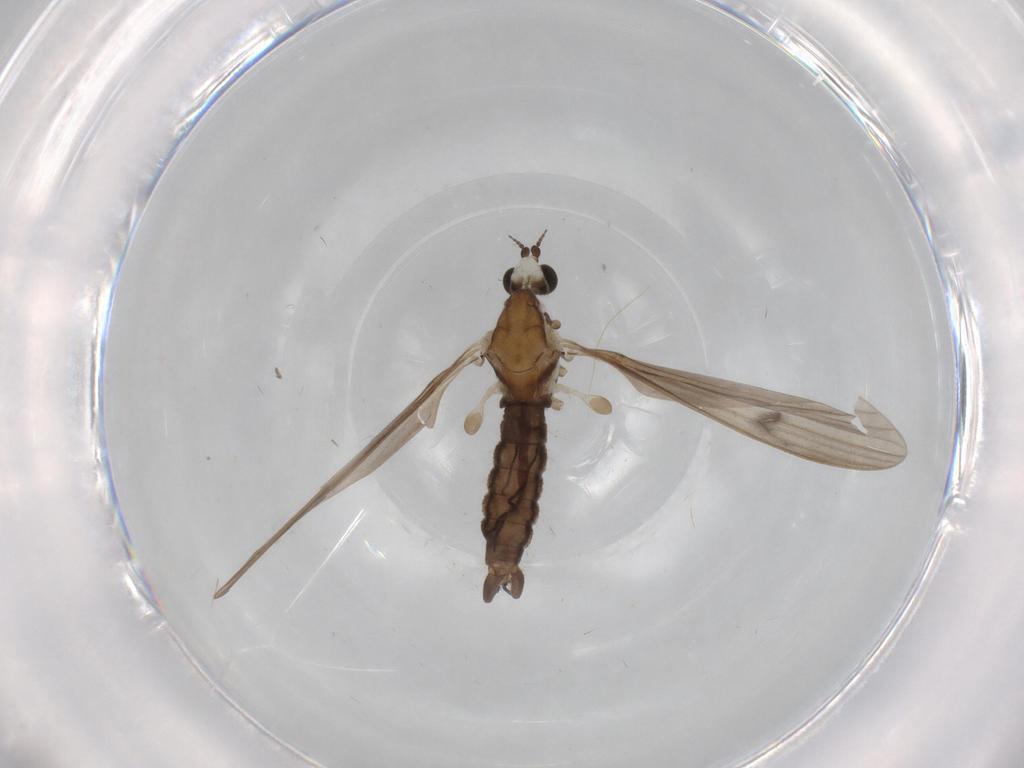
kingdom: Animalia
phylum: Arthropoda
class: Insecta
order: Diptera
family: Limoniidae
